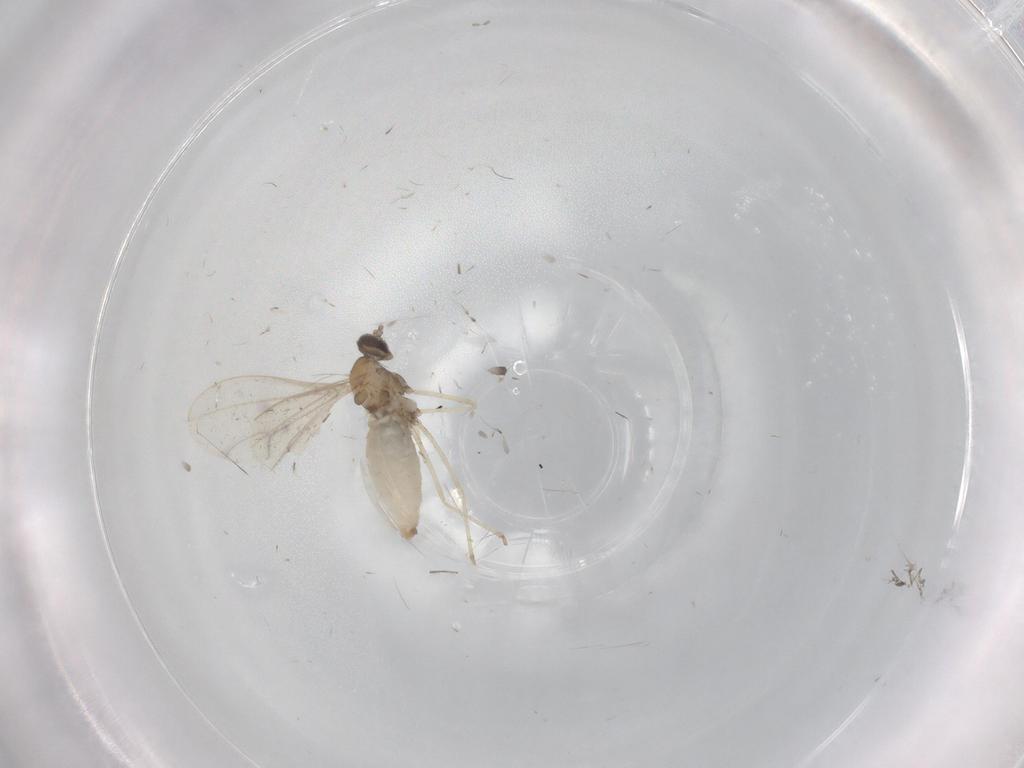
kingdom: Animalia
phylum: Arthropoda
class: Insecta
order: Diptera
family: Cecidomyiidae
